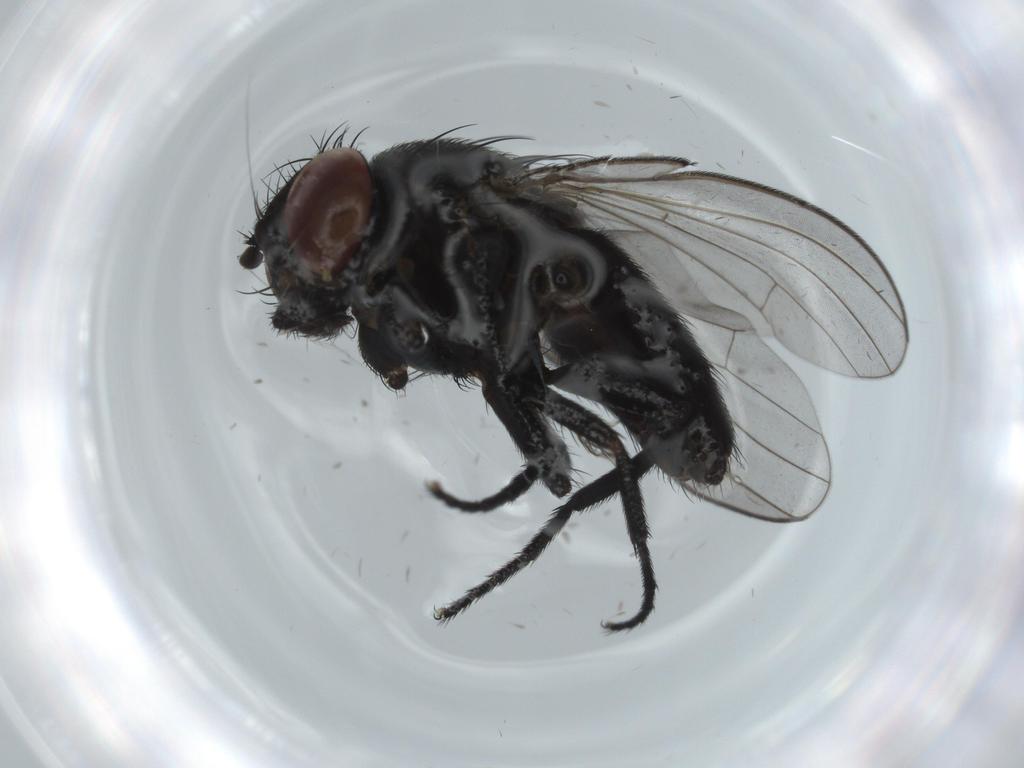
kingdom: Animalia
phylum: Arthropoda
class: Insecta
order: Diptera
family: Milichiidae
